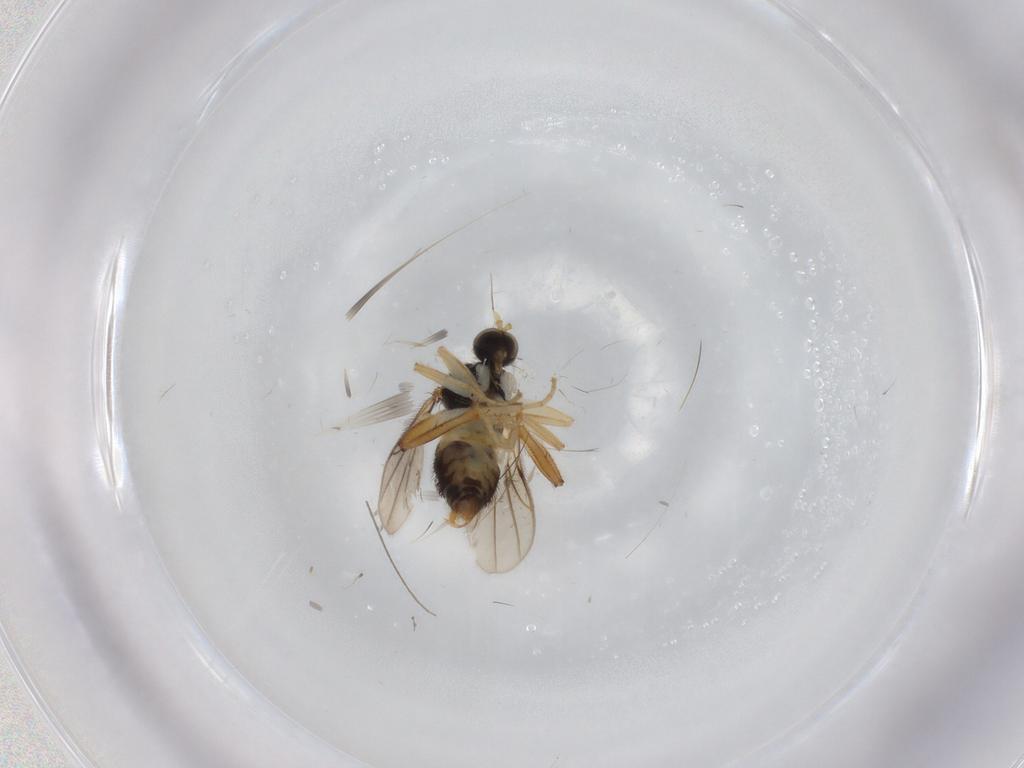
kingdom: Animalia
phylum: Arthropoda
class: Insecta
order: Diptera
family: Hybotidae
